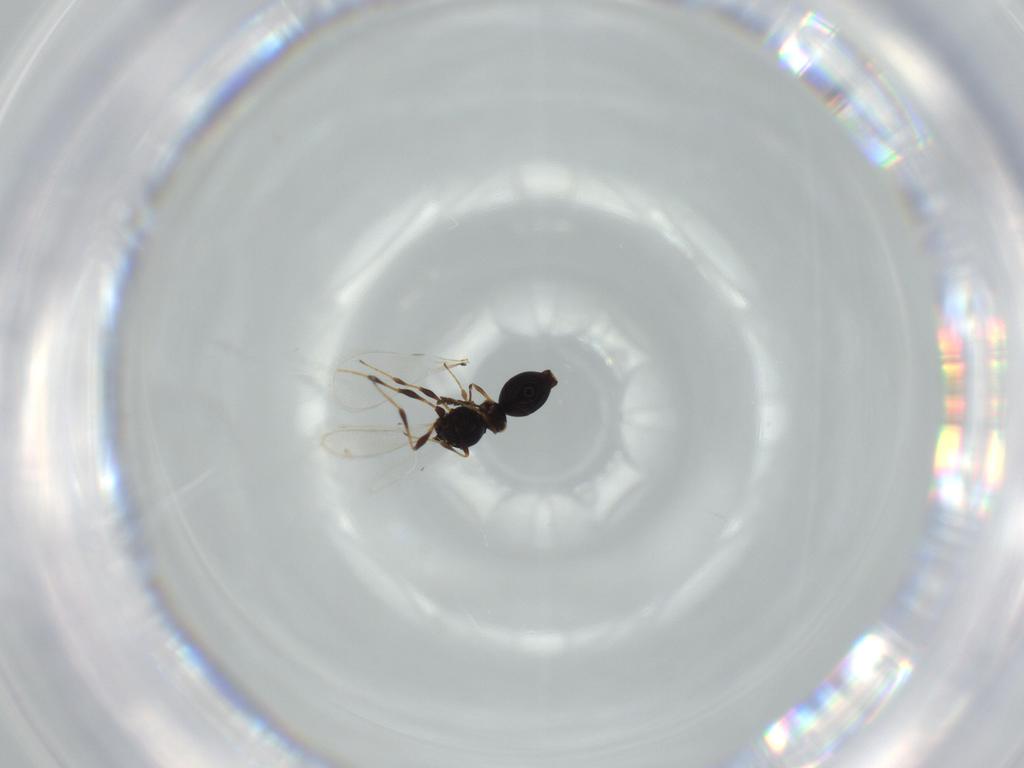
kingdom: Animalia
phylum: Arthropoda
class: Insecta
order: Hymenoptera
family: Platygastridae
